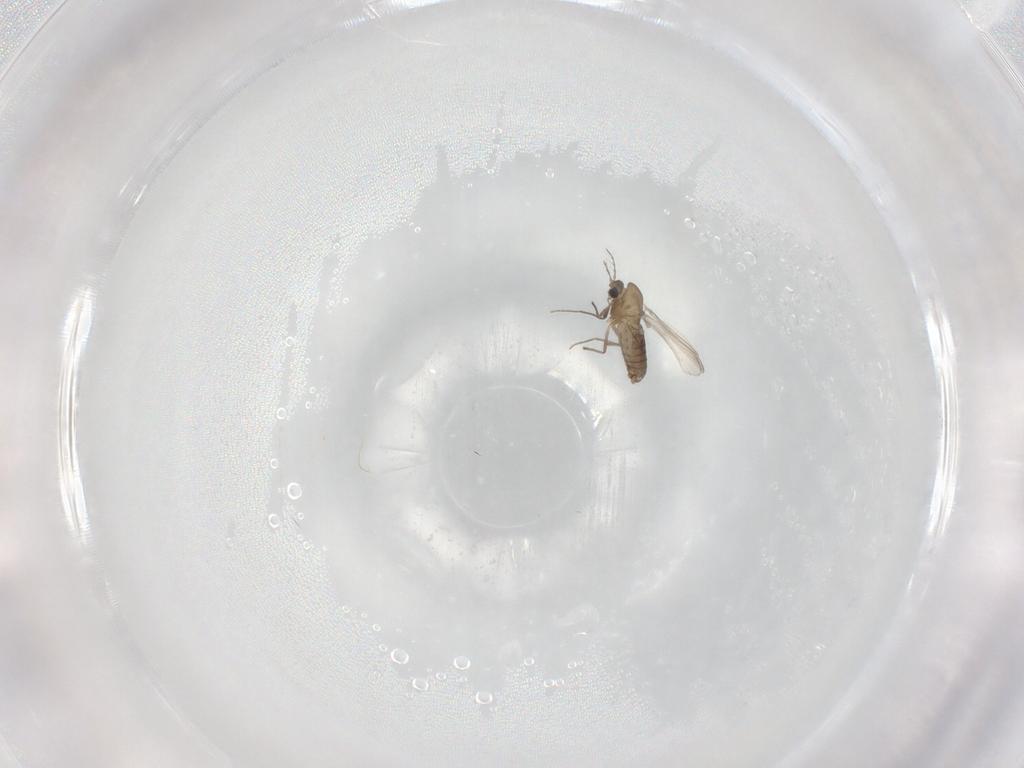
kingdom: Animalia
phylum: Arthropoda
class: Insecta
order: Diptera
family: Chironomidae
